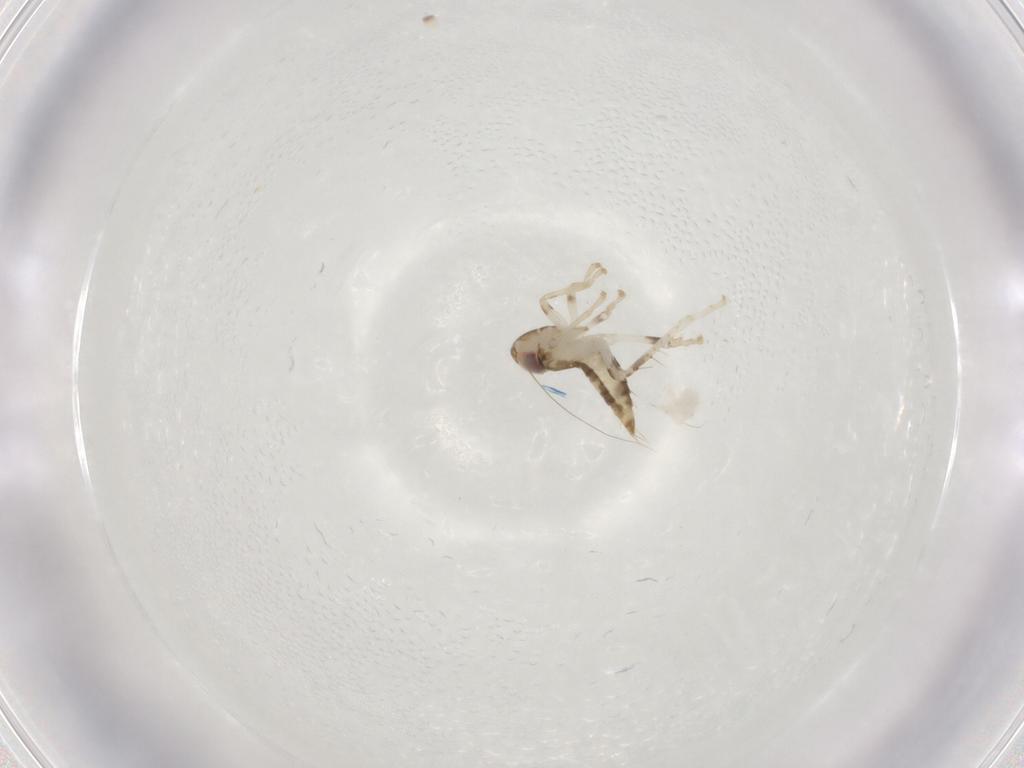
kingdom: Animalia
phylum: Arthropoda
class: Insecta
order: Hemiptera
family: Cicadellidae
